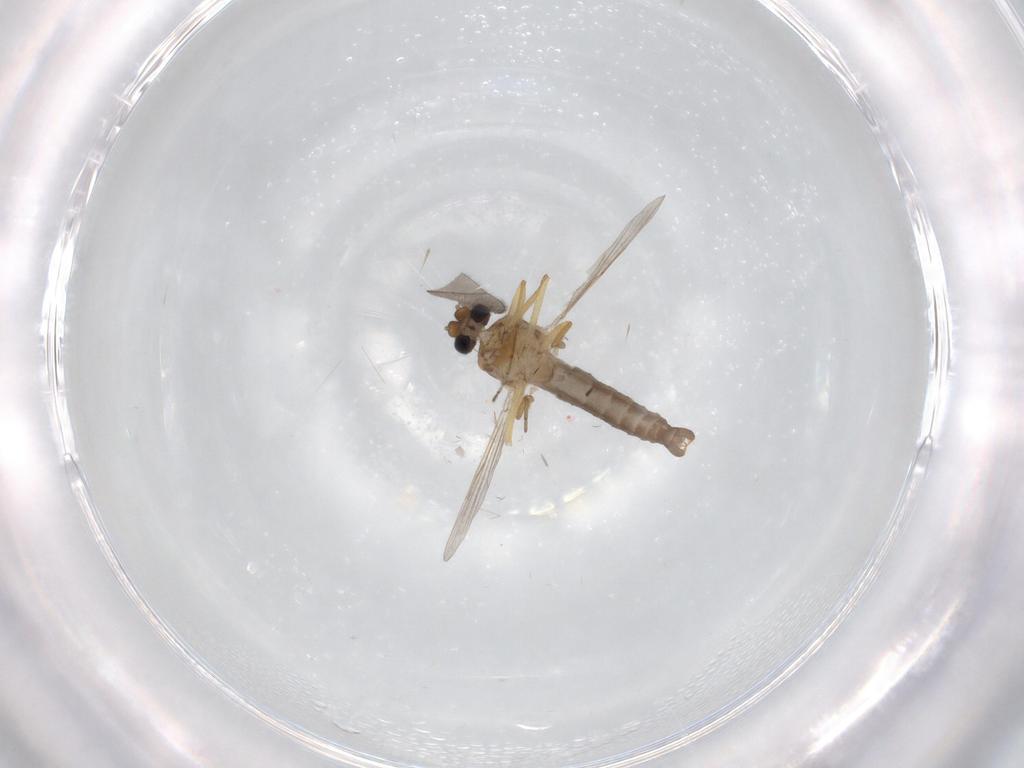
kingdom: Animalia
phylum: Arthropoda
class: Insecta
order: Diptera
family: Ceratopogonidae
